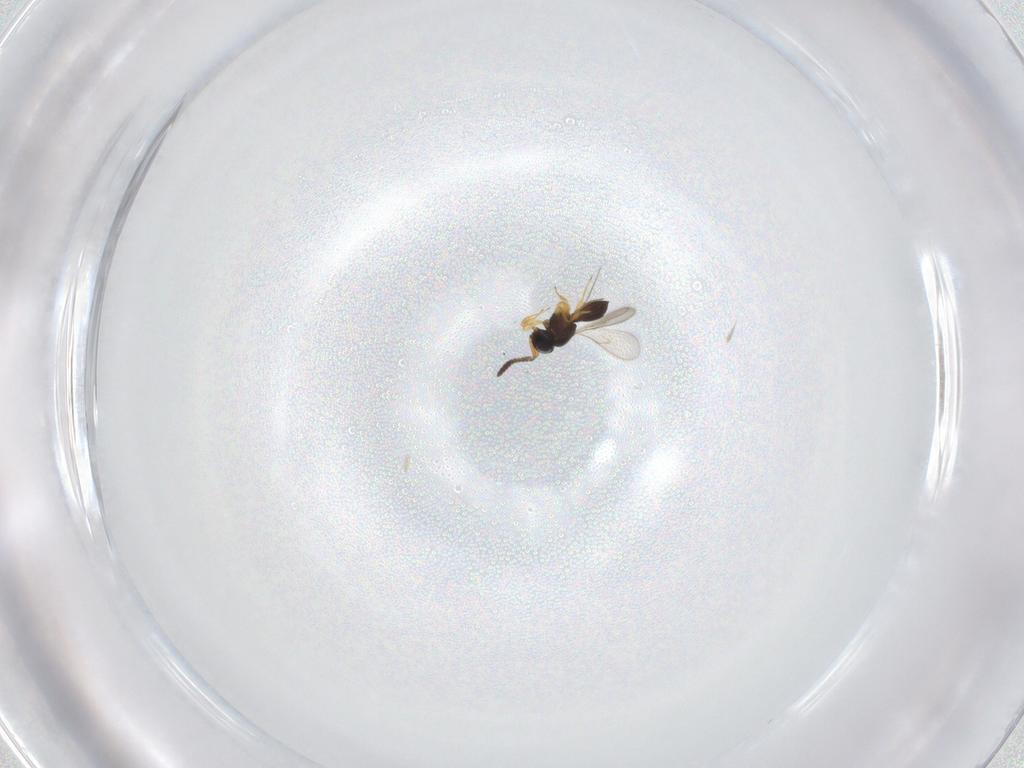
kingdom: Animalia
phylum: Arthropoda
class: Insecta
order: Hymenoptera
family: Scelionidae
